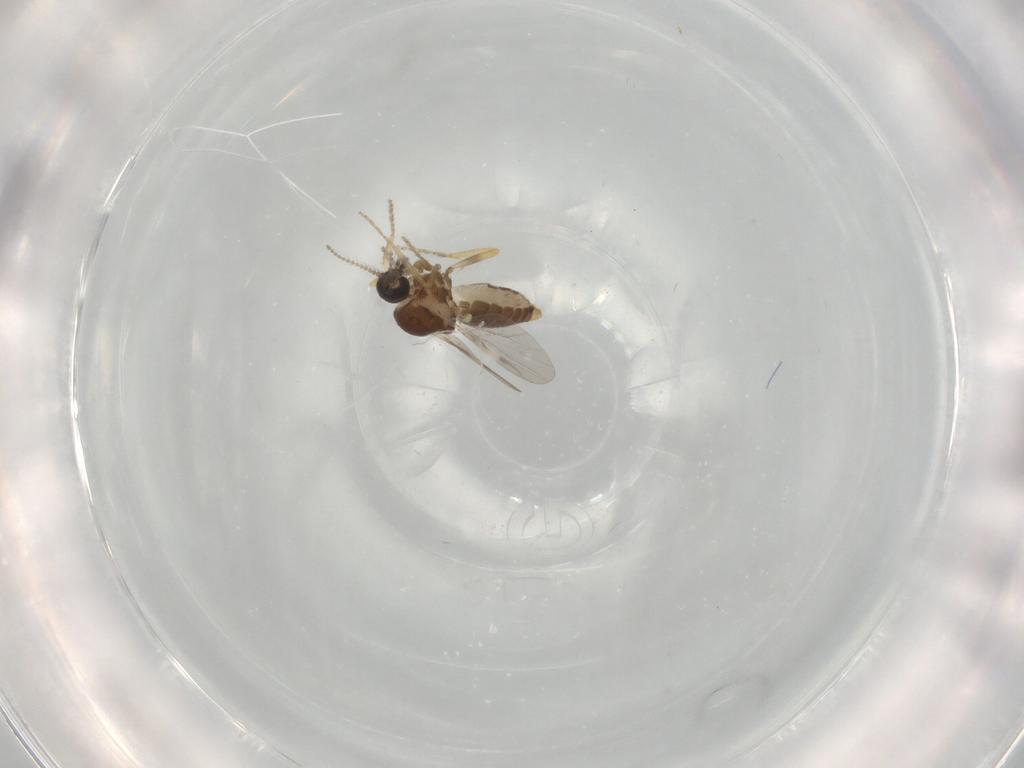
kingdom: Animalia
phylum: Arthropoda
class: Insecta
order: Diptera
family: Ceratopogonidae
